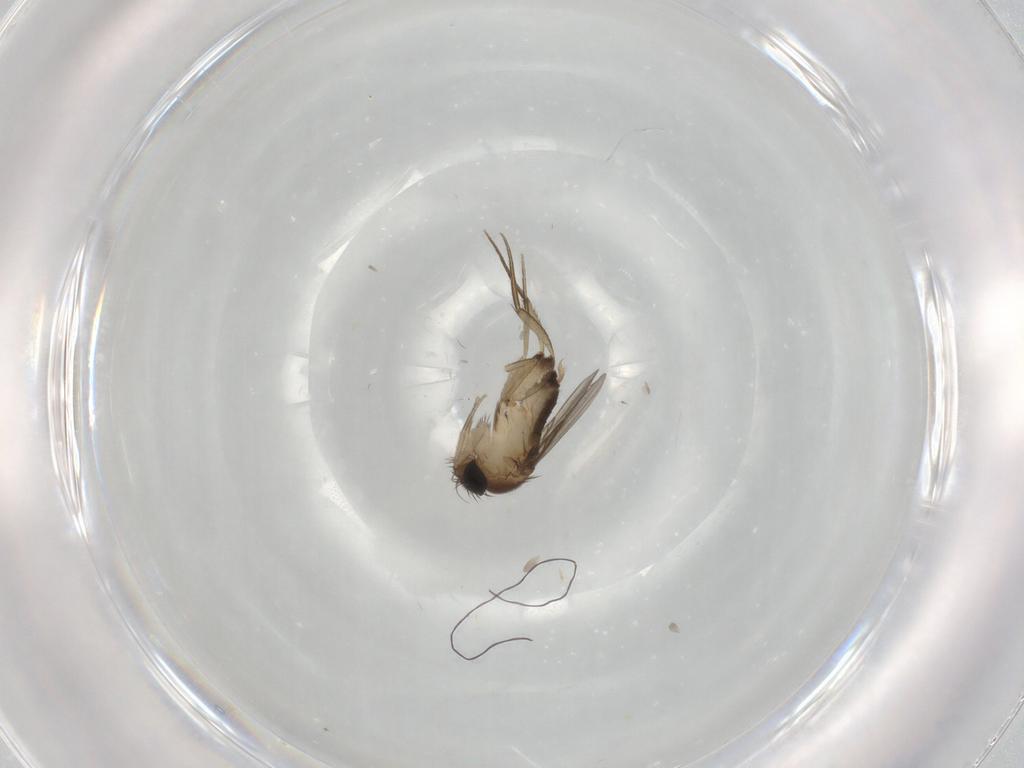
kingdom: Animalia
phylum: Arthropoda
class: Insecta
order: Diptera
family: Phoridae
